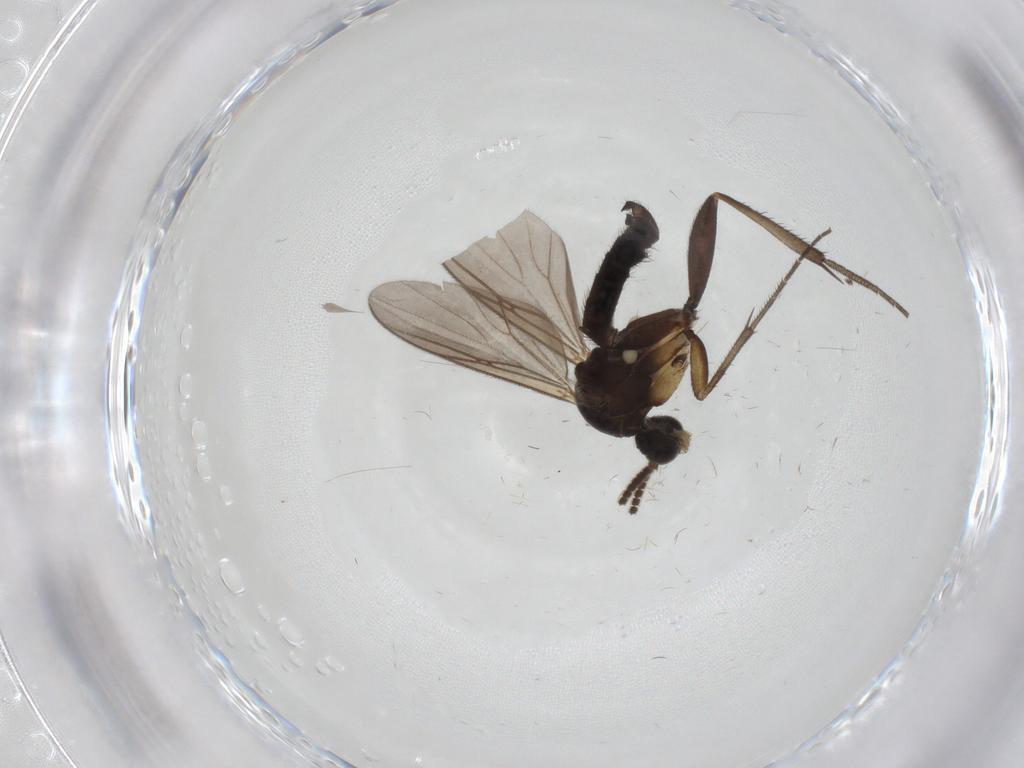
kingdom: Animalia
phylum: Arthropoda
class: Insecta
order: Diptera
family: Mycetophilidae
